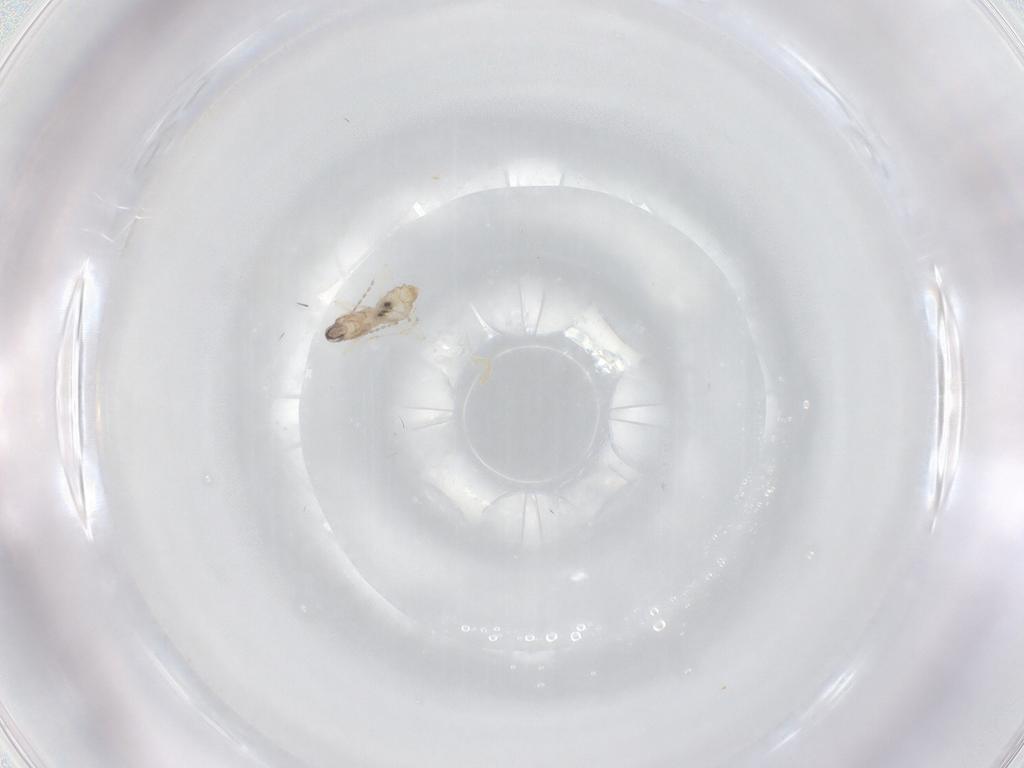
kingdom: Animalia
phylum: Arthropoda
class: Insecta
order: Diptera
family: Cecidomyiidae
